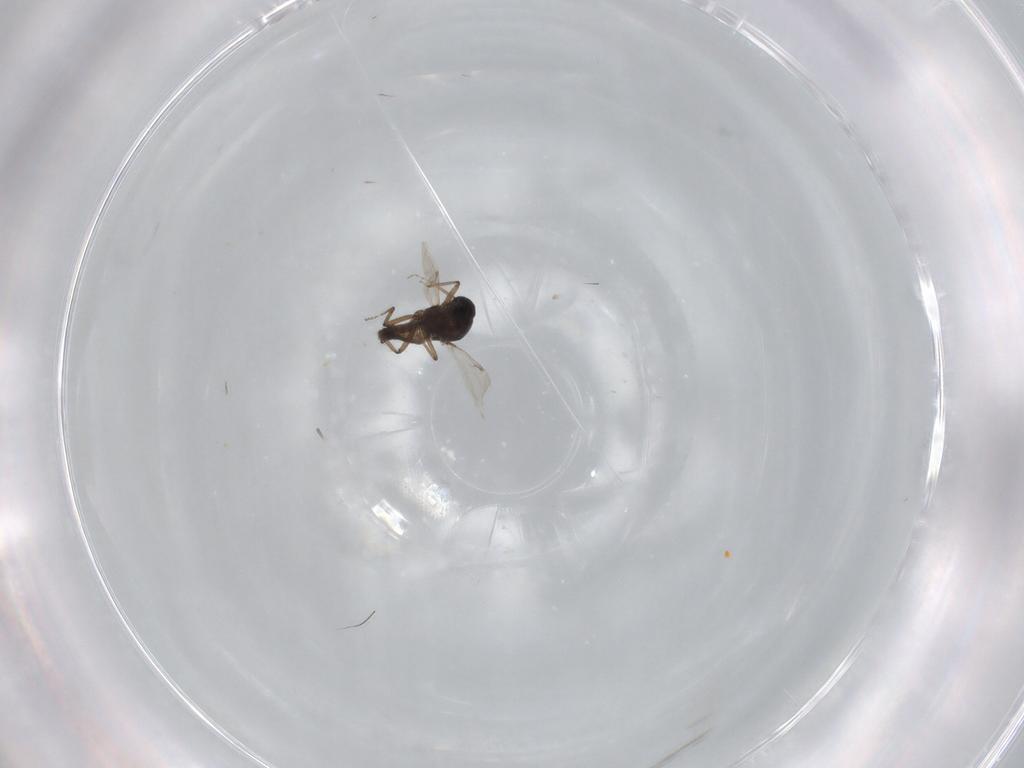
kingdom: Animalia
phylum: Arthropoda
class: Insecta
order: Diptera
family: Ceratopogonidae
